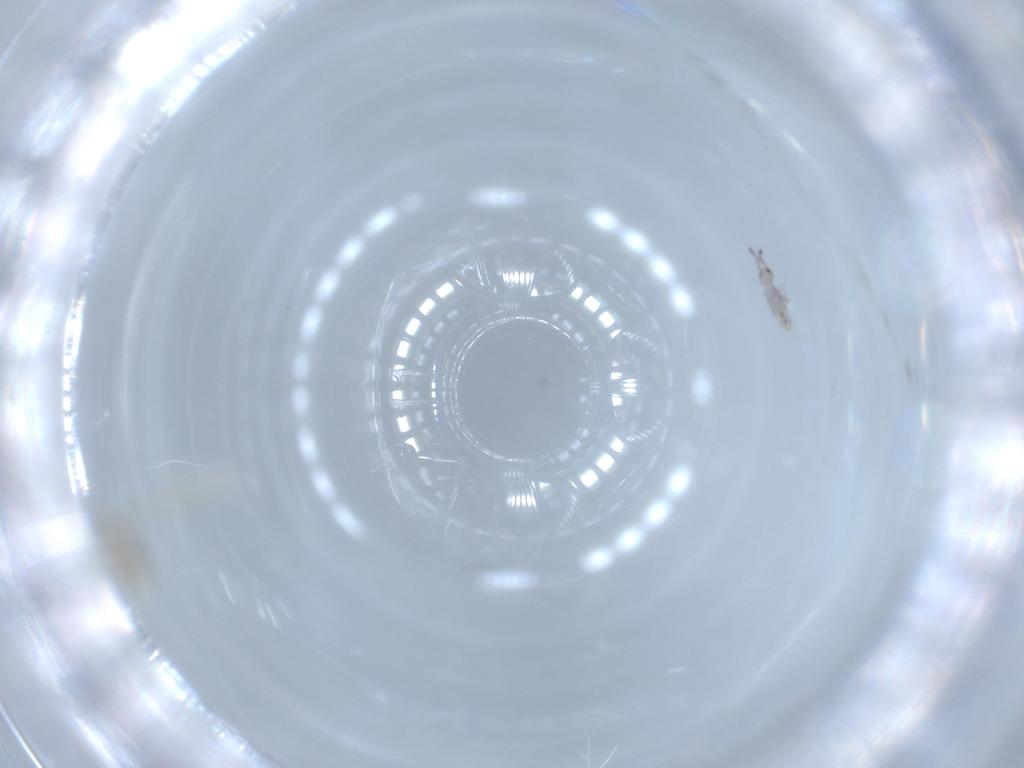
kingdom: Animalia
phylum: Arthropoda
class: Insecta
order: Diptera
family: Cecidomyiidae
